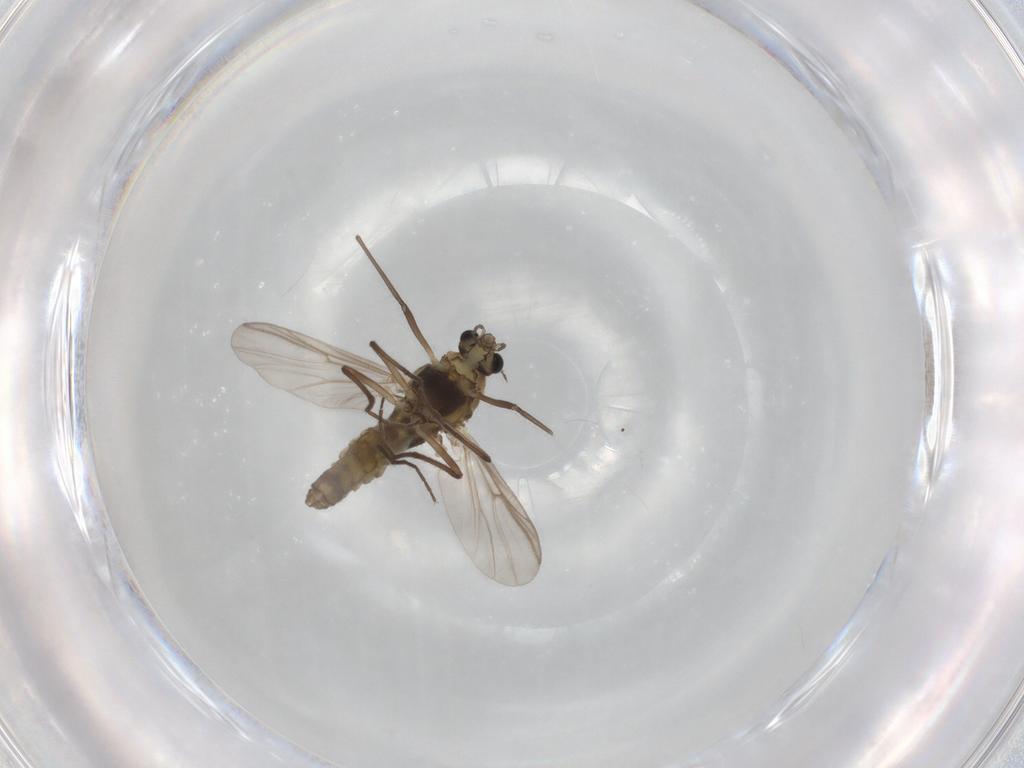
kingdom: Animalia
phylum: Arthropoda
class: Insecta
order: Diptera
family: Chironomidae
